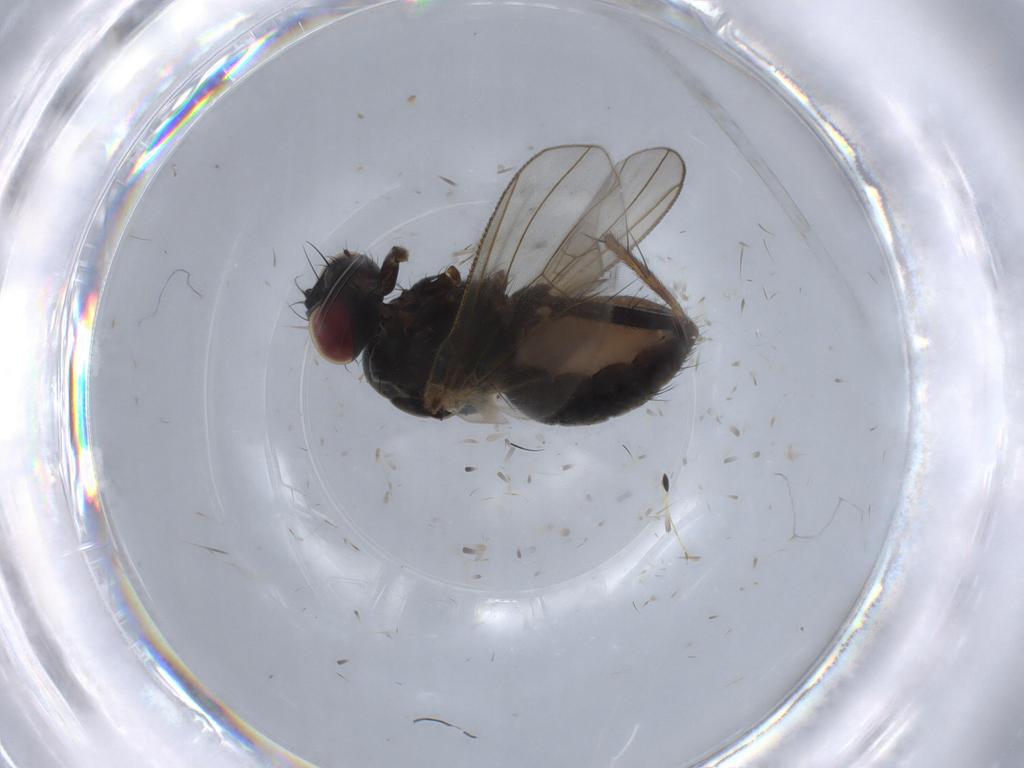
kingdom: Animalia
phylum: Arthropoda
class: Insecta
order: Diptera
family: Muscidae
